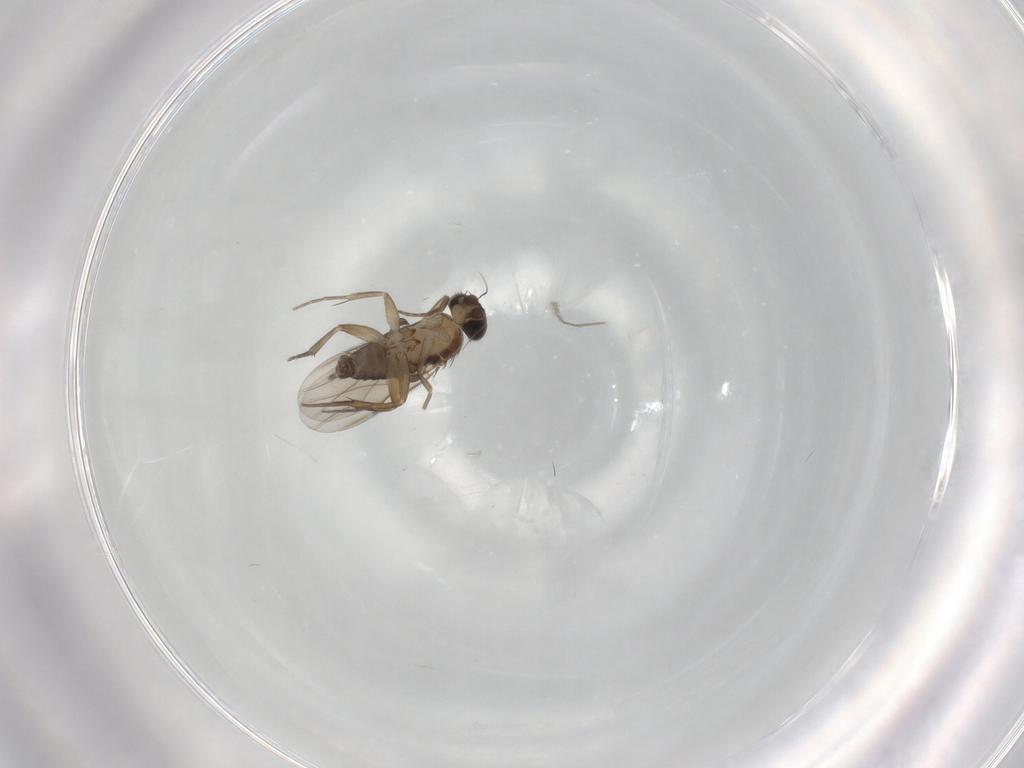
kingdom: Animalia
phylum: Arthropoda
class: Insecta
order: Diptera
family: Phoridae
